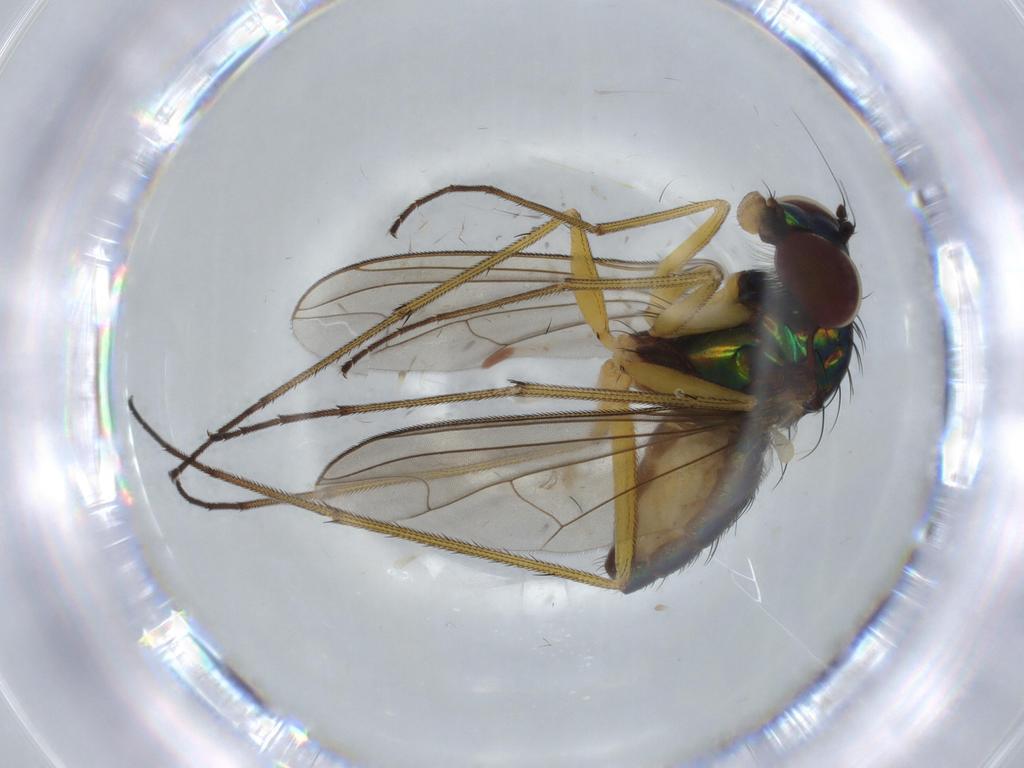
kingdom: Animalia
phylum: Arthropoda
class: Insecta
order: Diptera
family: Dolichopodidae
